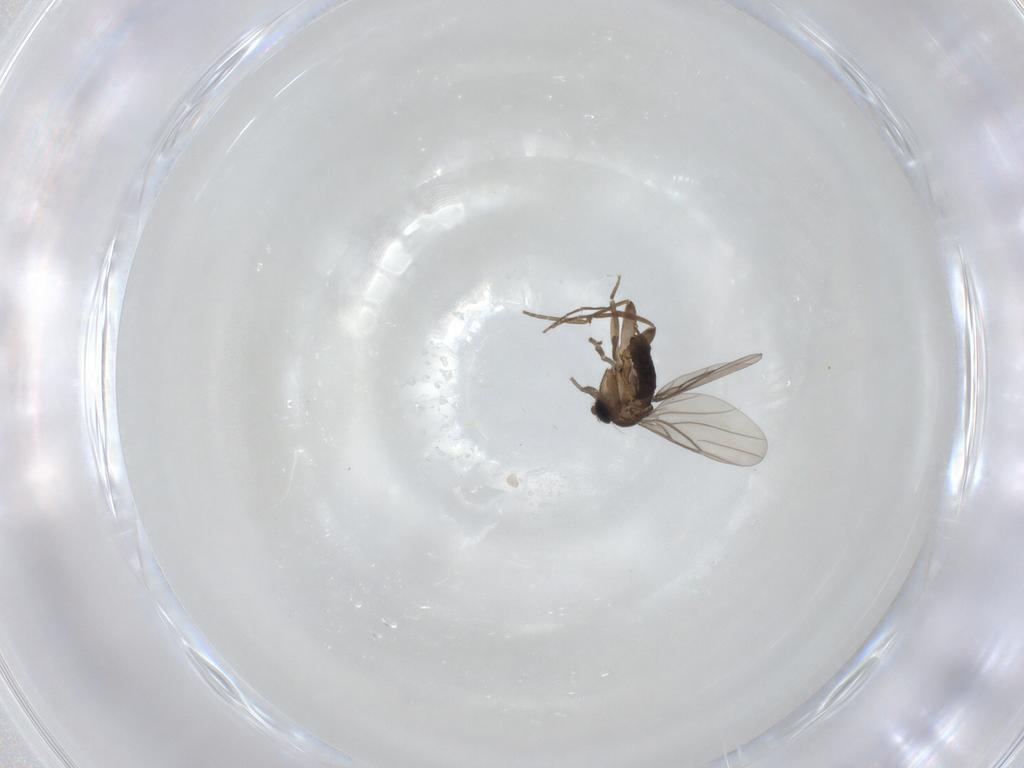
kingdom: Animalia
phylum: Arthropoda
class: Insecta
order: Diptera
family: Phoridae
